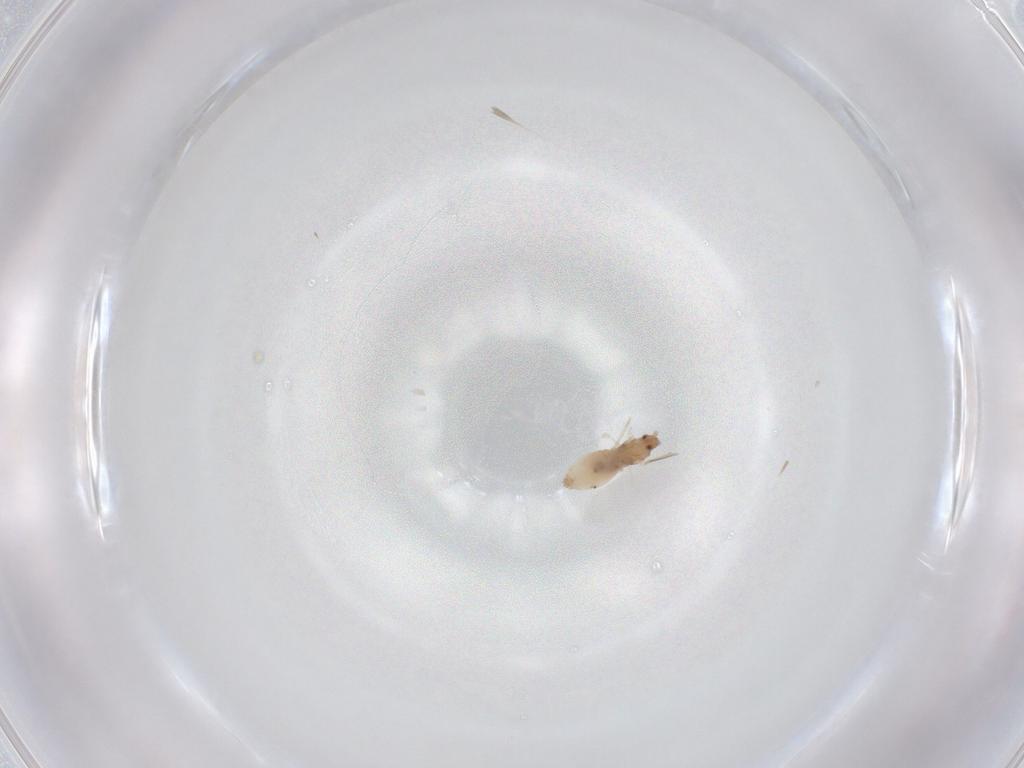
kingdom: Animalia
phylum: Arthropoda
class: Insecta
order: Diptera
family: Cecidomyiidae
